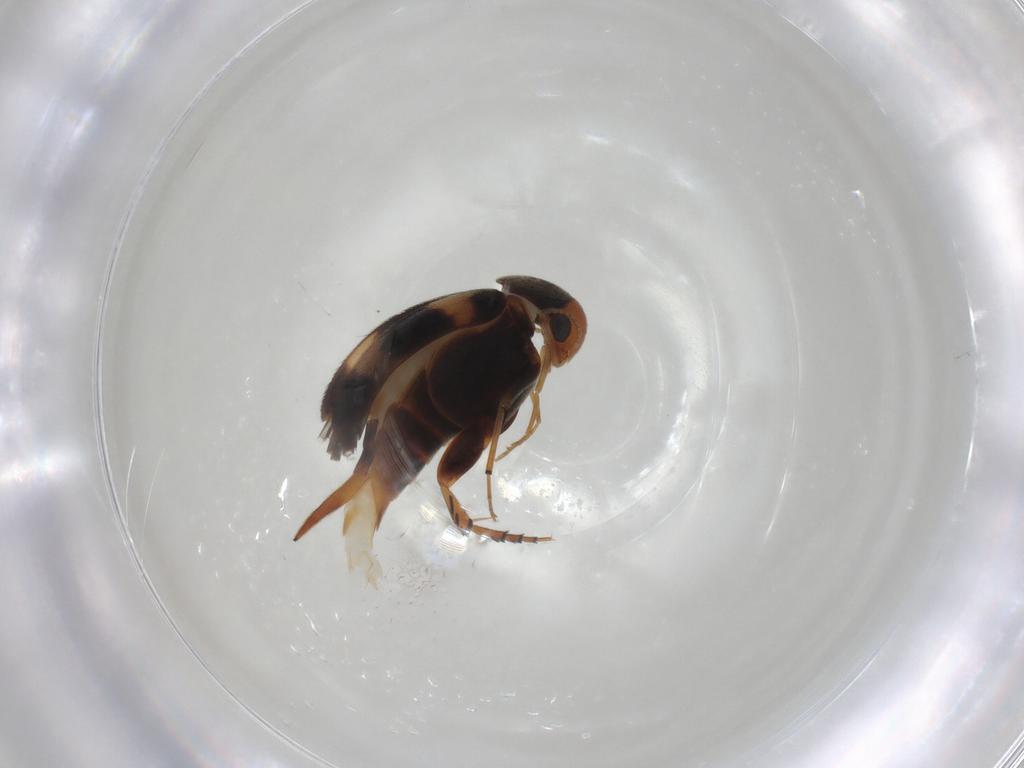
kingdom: Animalia
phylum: Arthropoda
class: Insecta
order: Coleoptera
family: Mordellidae
